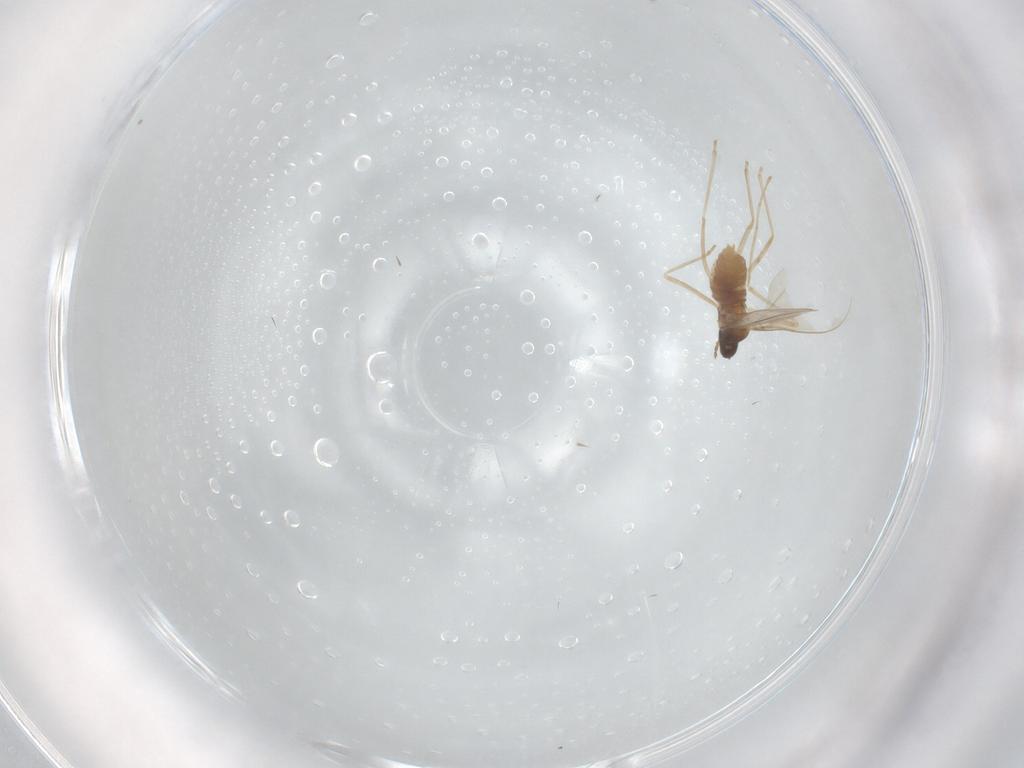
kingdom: Animalia
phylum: Arthropoda
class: Insecta
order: Diptera
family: Cecidomyiidae
